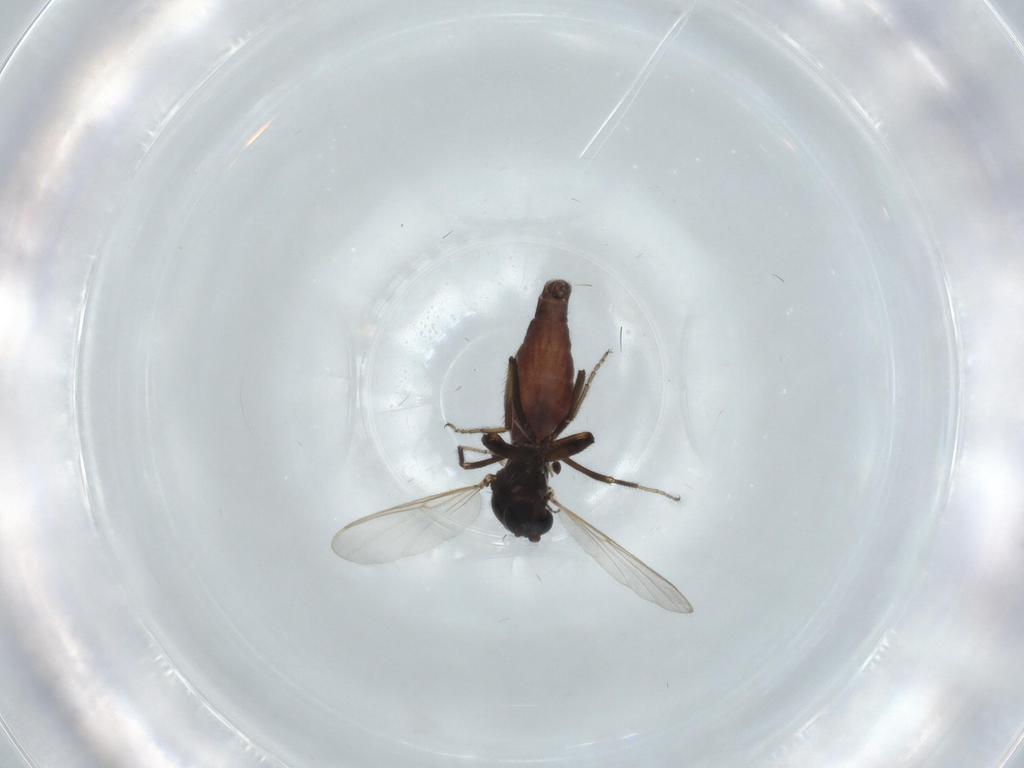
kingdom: Animalia
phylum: Arthropoda
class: Insecta
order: Diptera
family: Ceratopogonidae
